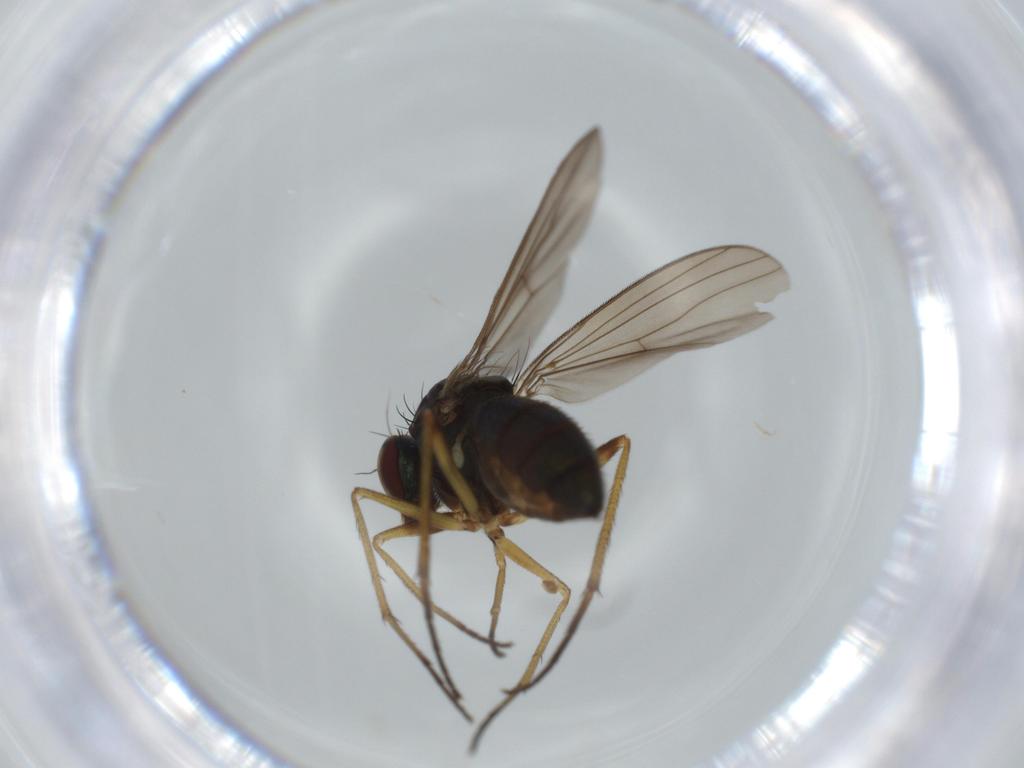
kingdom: Animalia
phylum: Arthropoda
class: Insecta
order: Diptera
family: Dolichopodidae
